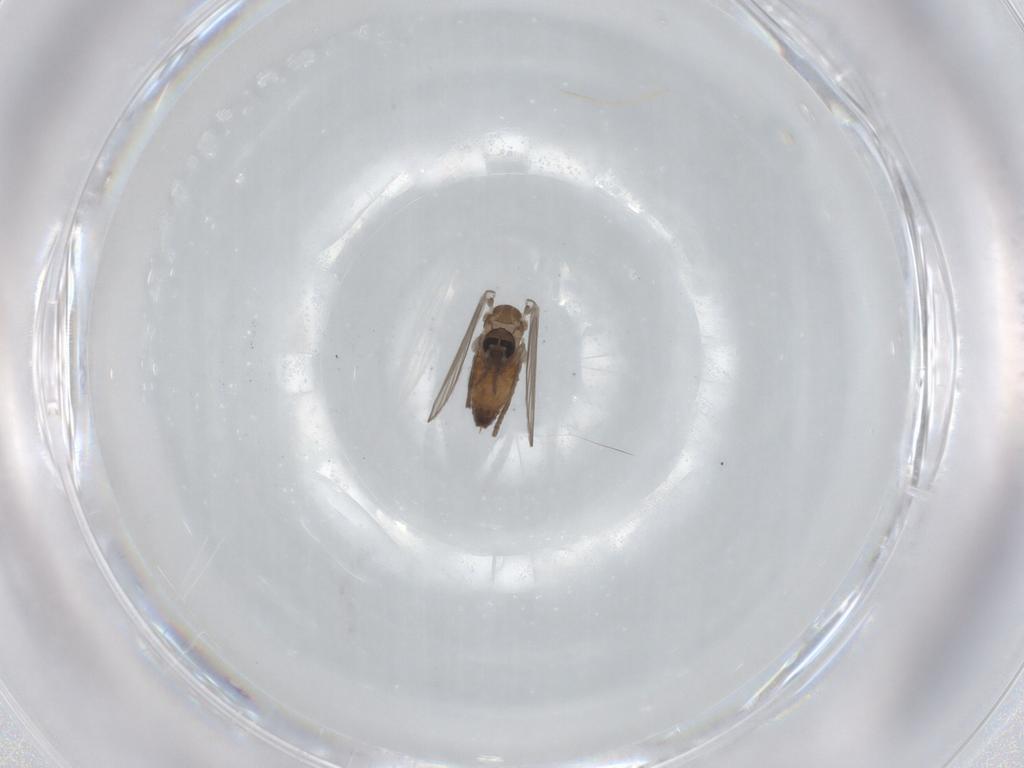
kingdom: Animalia
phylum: Arthropoda
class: Insecta
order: Diptera
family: Psychodidae
